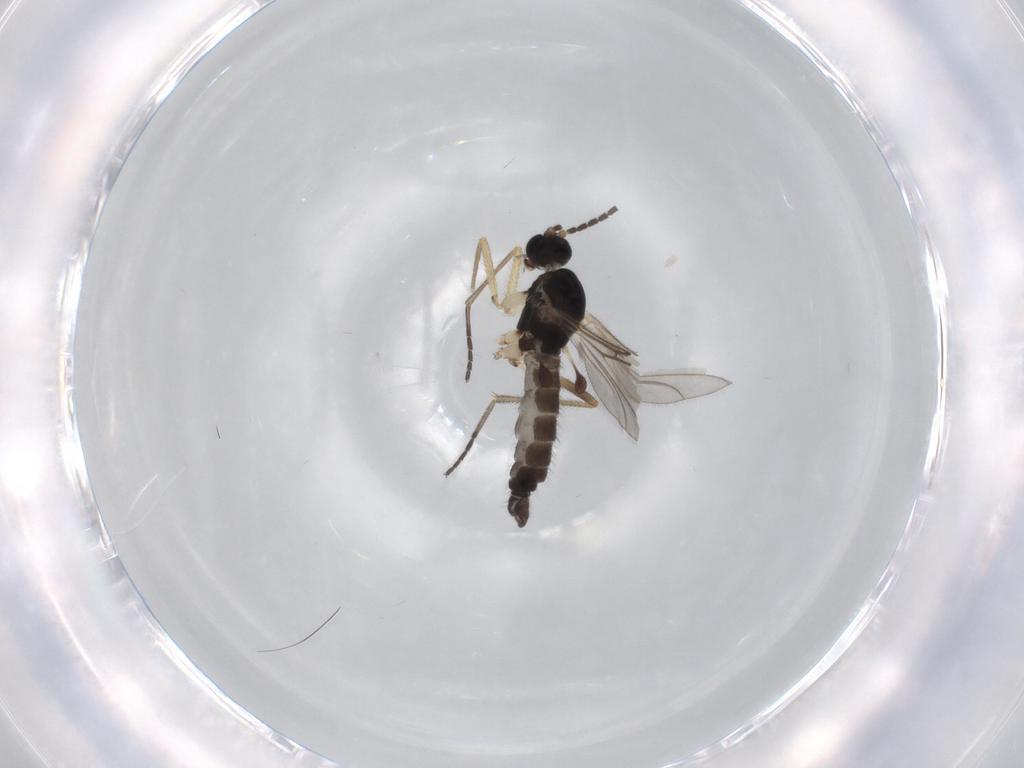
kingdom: Animalia
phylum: Arthropoda
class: Insecta
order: Diptera
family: Sciaridae
